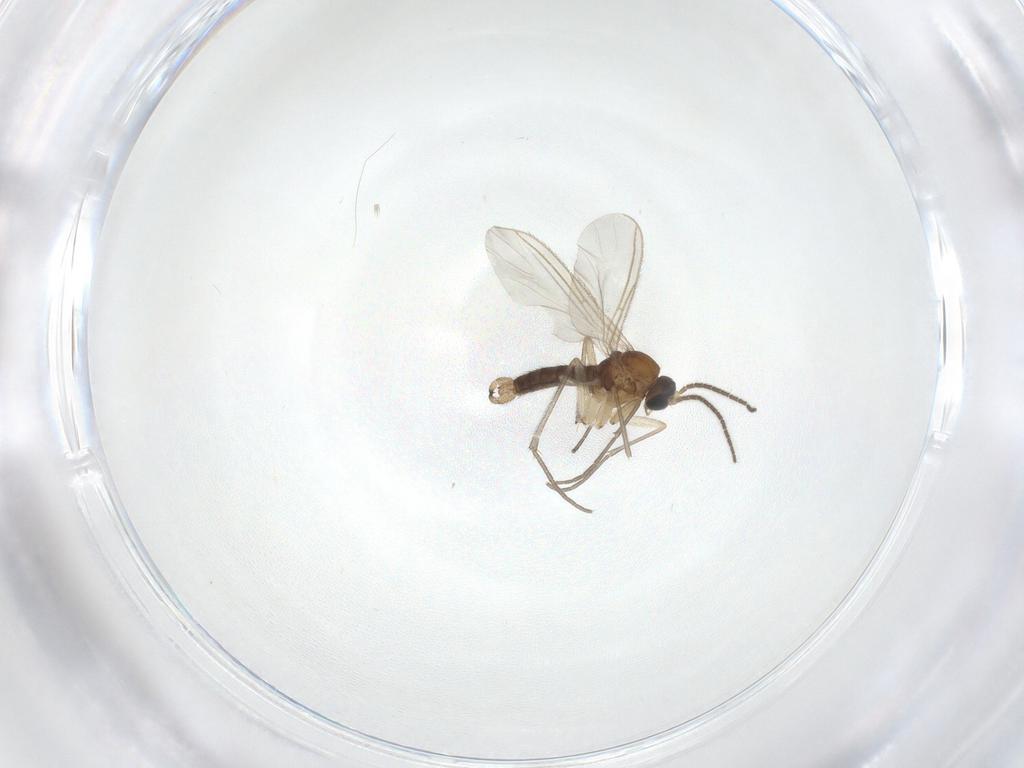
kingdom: Animalia
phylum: Arthropoda
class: Insecta
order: Diptera
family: Sciaridae
